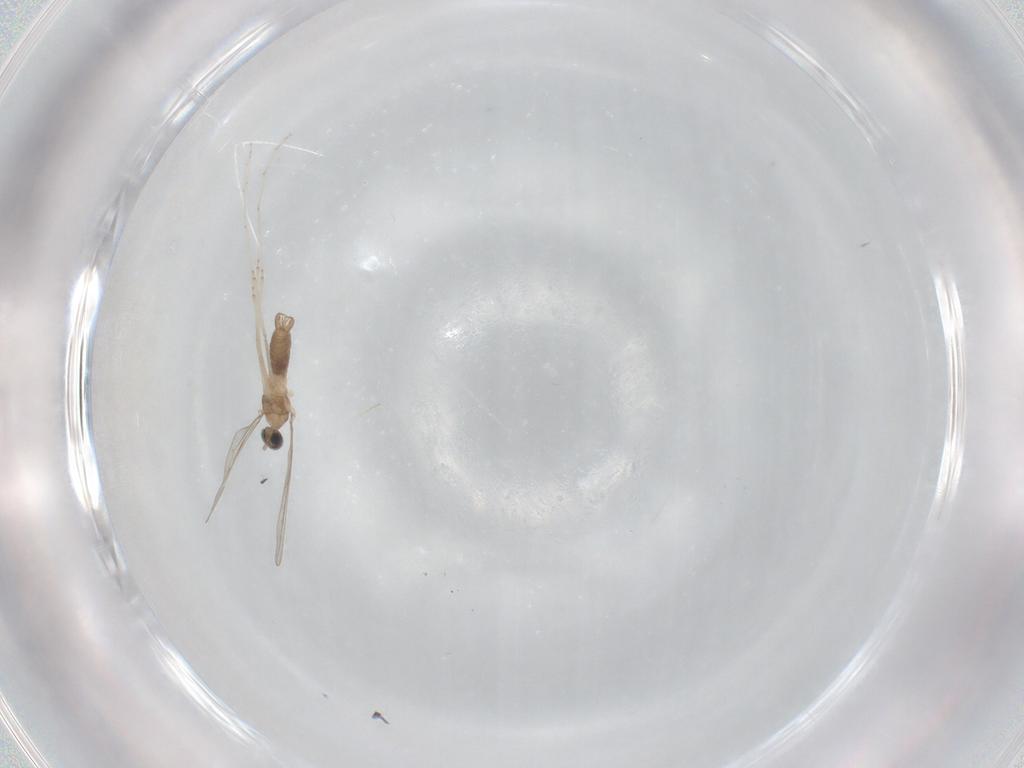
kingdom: Animalia
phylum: Arthropoda
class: Insecta
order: Diptera
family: Cecidomyiidae
